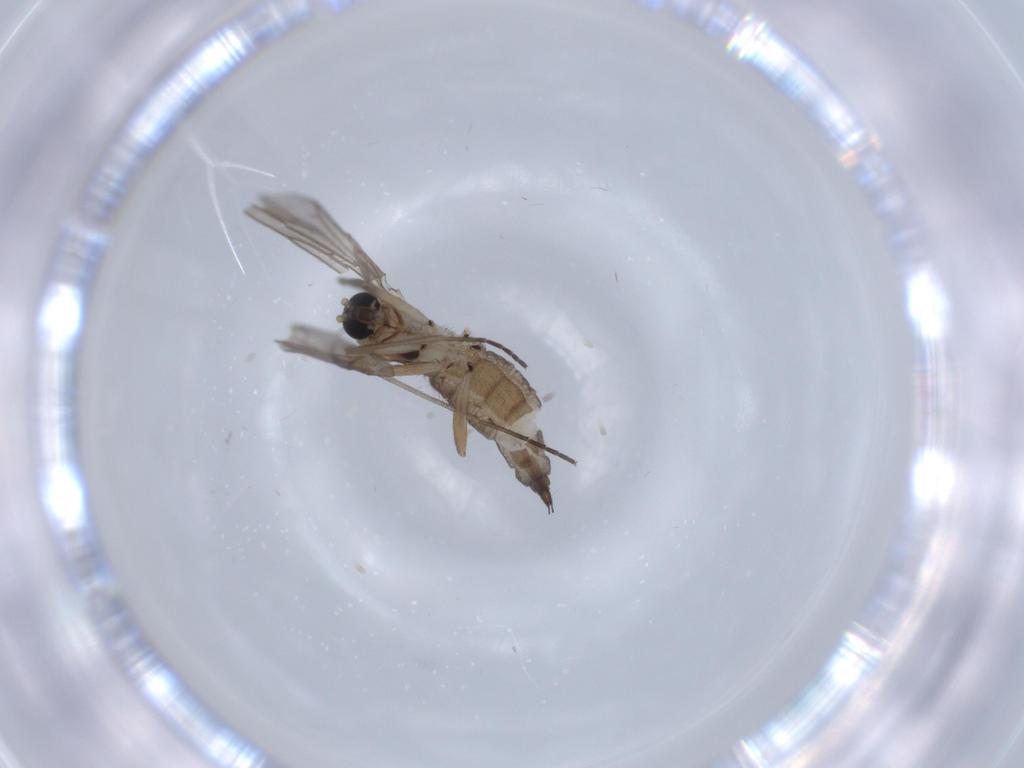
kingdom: Animalia
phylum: Arthropoda
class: Insecta
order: Diptera
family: Sciaridae
